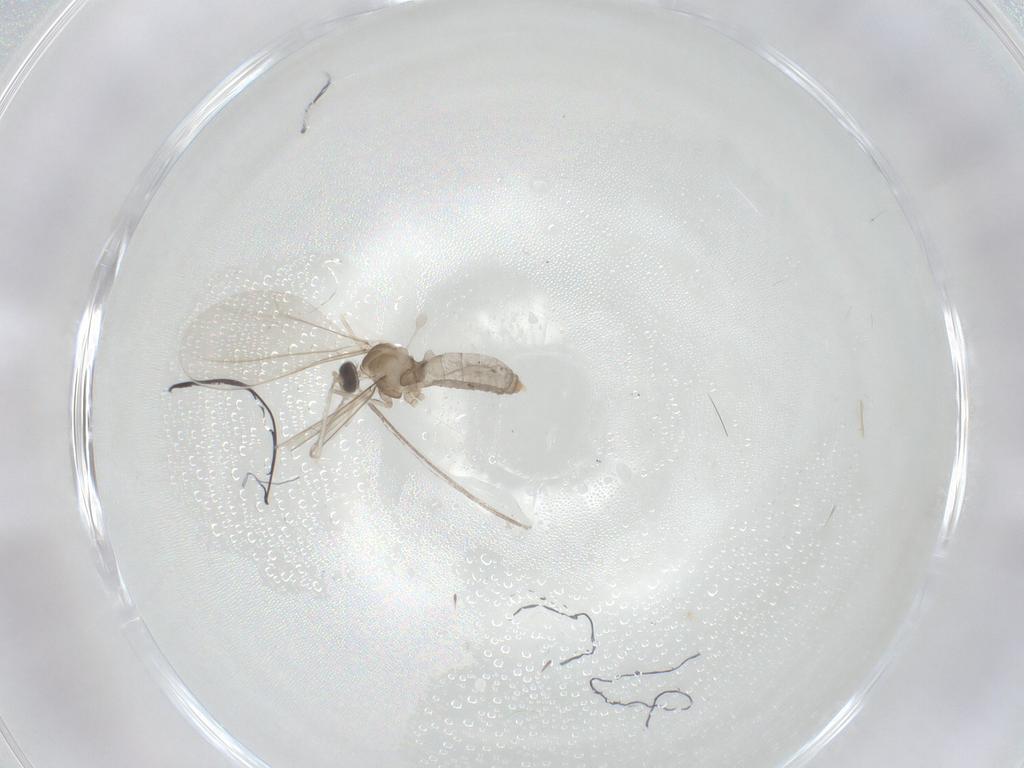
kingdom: Animalia
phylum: Arthropoda
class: Insecta
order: Diptera
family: Cecidomyiidae
